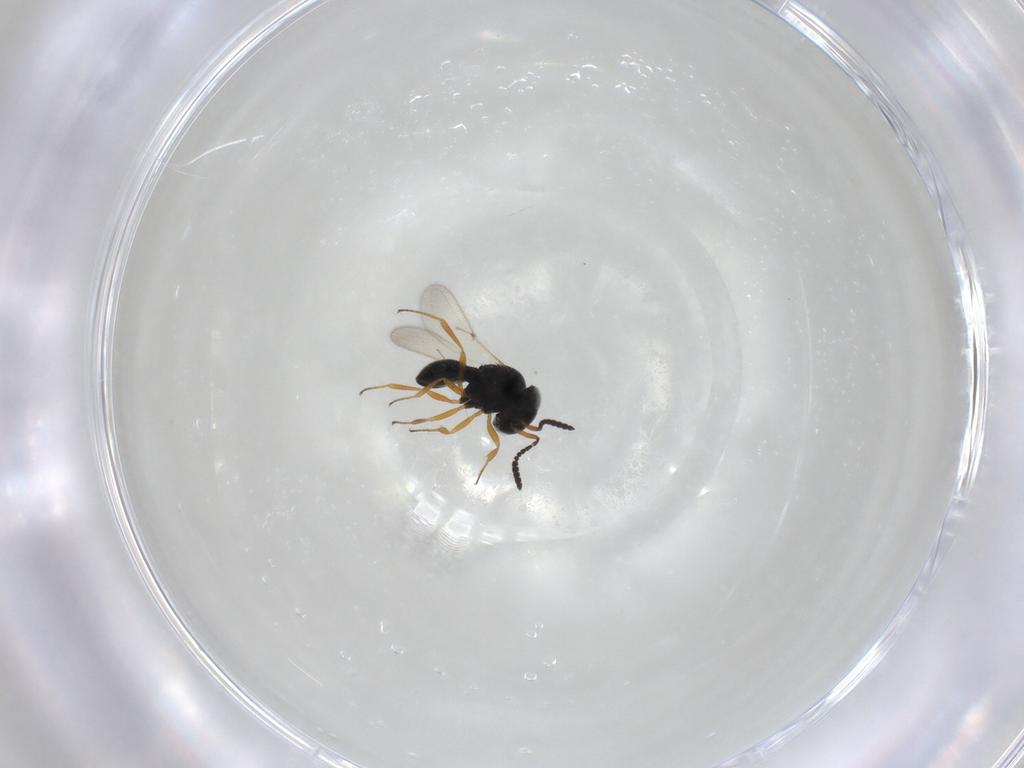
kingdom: Animalia
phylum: Arthropoda
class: Insecta
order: Hymenoptera
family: Scelionidae
